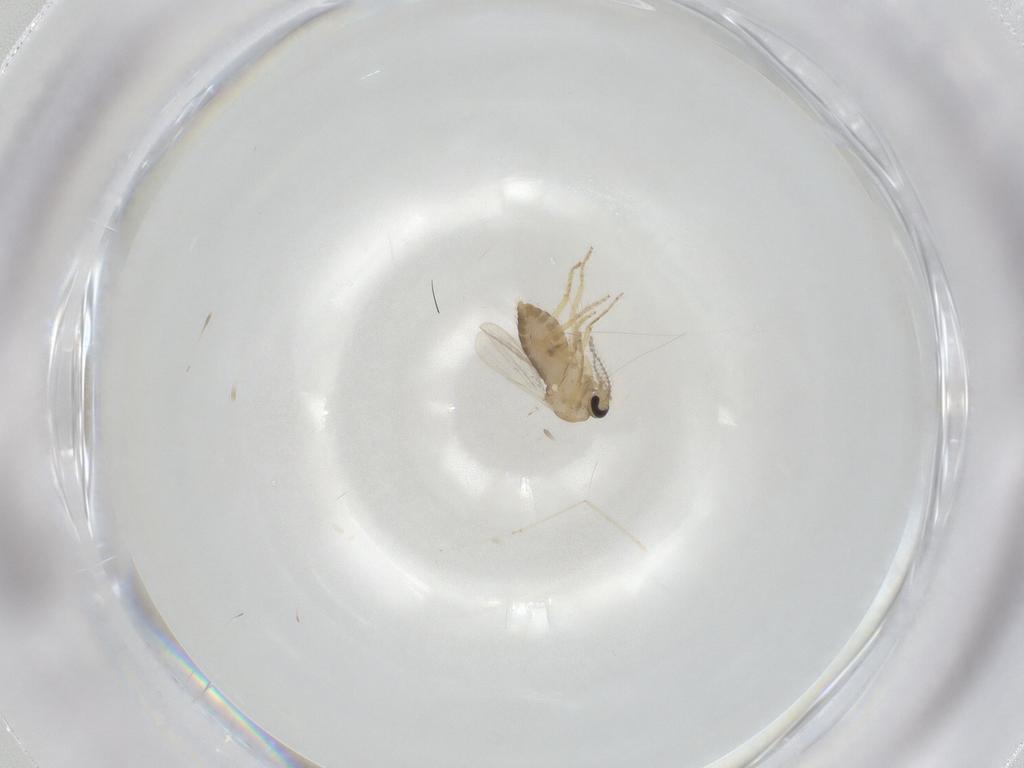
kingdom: Animalia
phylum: Arthropoda
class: Insecta
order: Diptera
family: Ceratopogonidae
